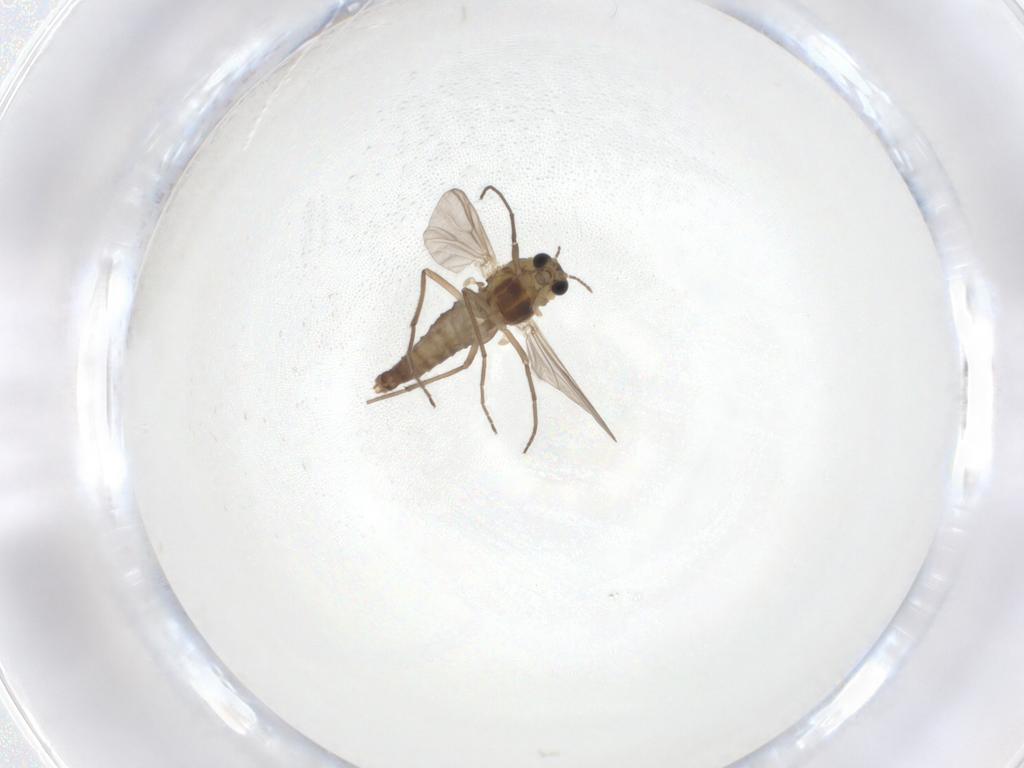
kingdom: Animalia
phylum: Arthropoda
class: Insecta
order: Diptera
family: Chironomidae
